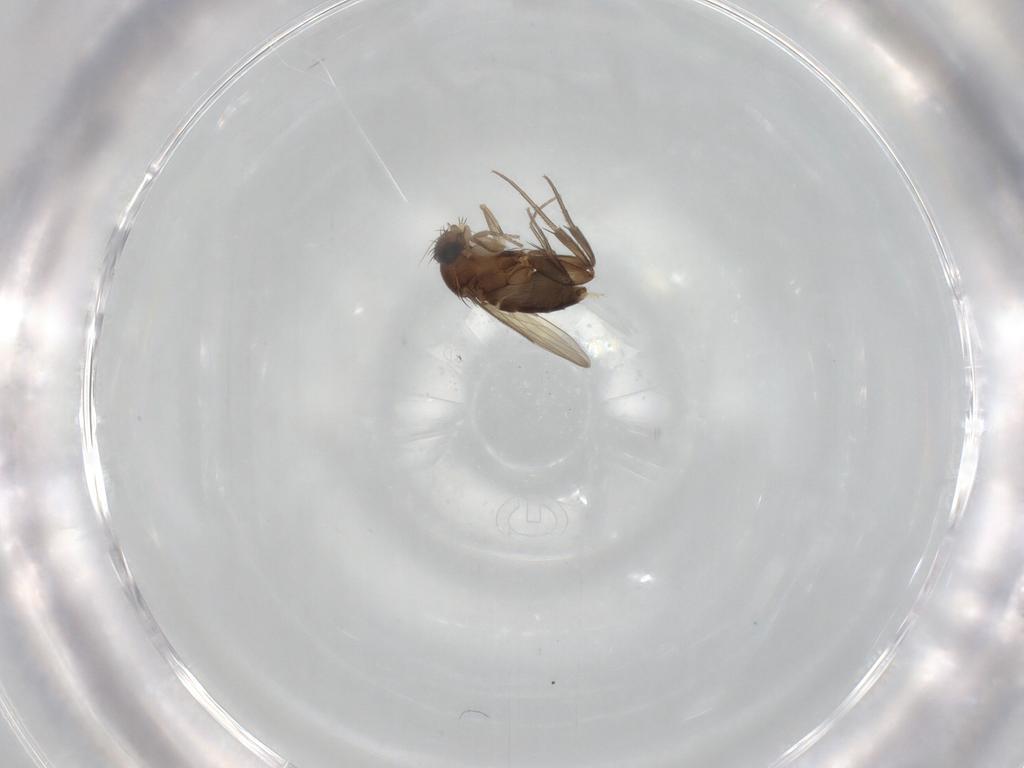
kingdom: Animalia
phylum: Arthropoda
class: Insecta
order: Diptera
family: Phoridae
